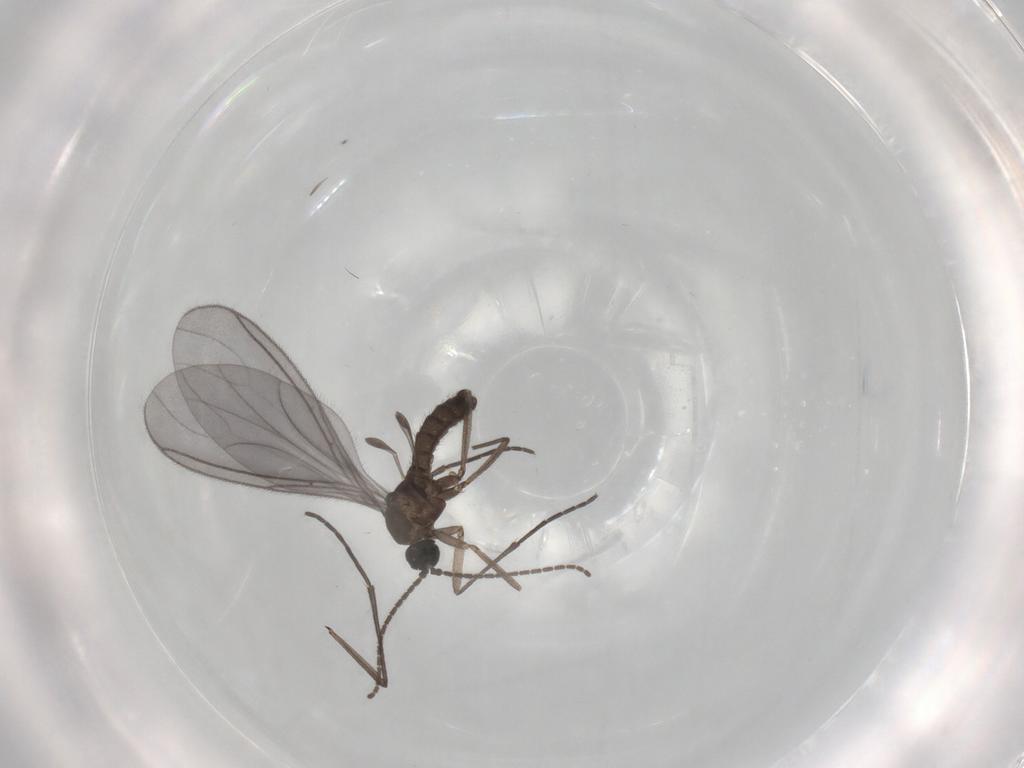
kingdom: Animalia
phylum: Arthropoda
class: Insecta
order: Diptera
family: Sciaridae
